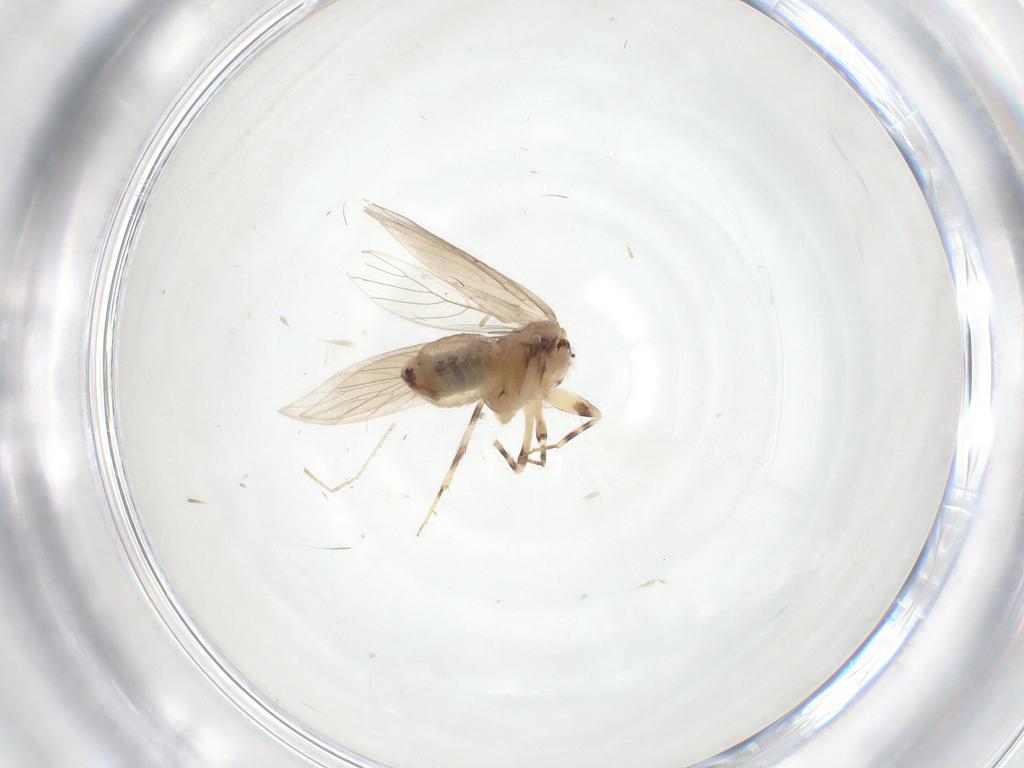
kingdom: Animalia
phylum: Arthropoda
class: Insecta
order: Psocodea
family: Lepidopsocidae
